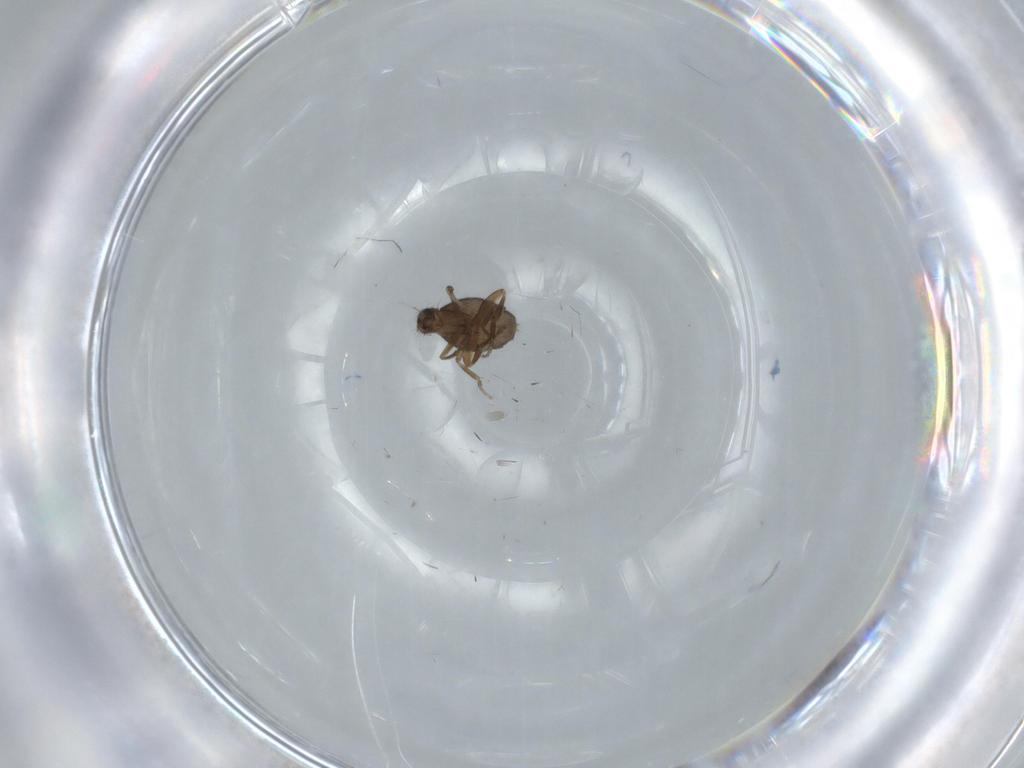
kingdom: Animalia
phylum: Arthropoda
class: Insecta
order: Diptera
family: Phoridae
